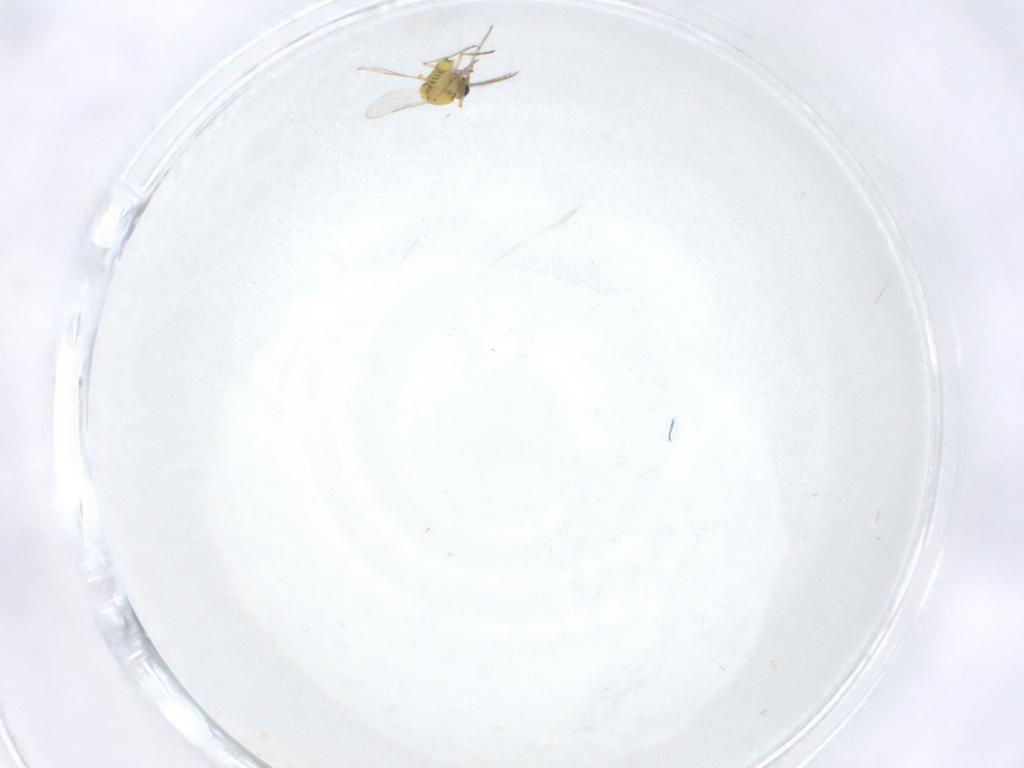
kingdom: Animalia
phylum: Arthropoda
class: Insecta
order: Diptera
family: Ceratopogonidae
